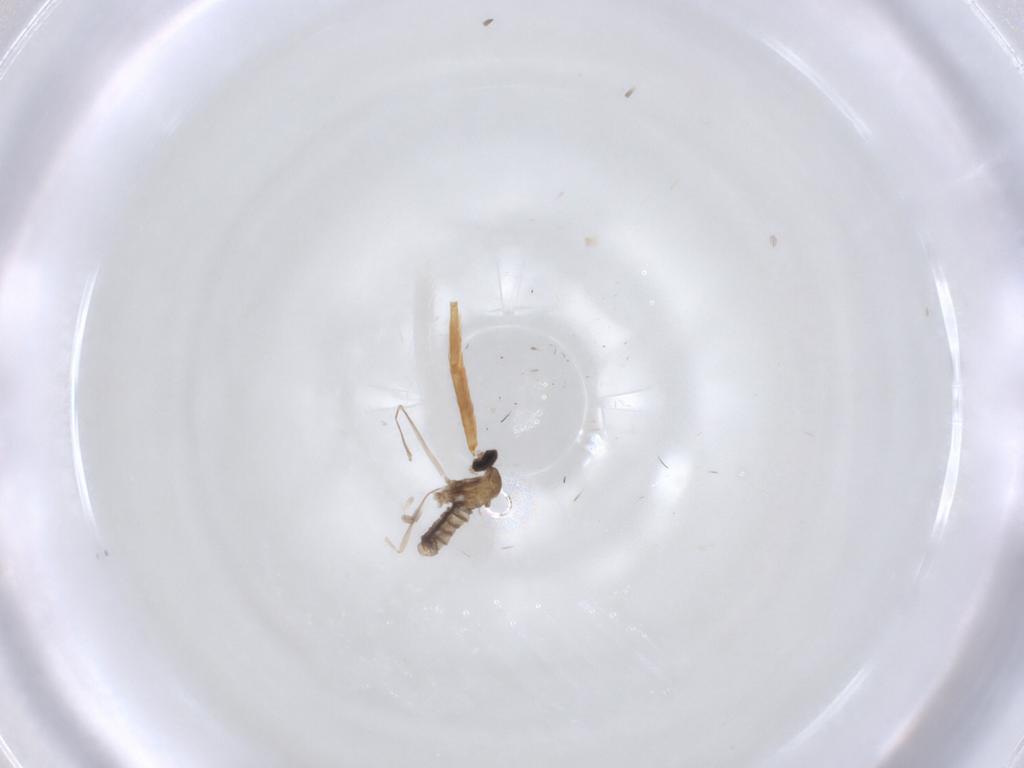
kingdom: Animalia
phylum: Arthropoda
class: Insecta
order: Diptera
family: Cecidomyiidae
